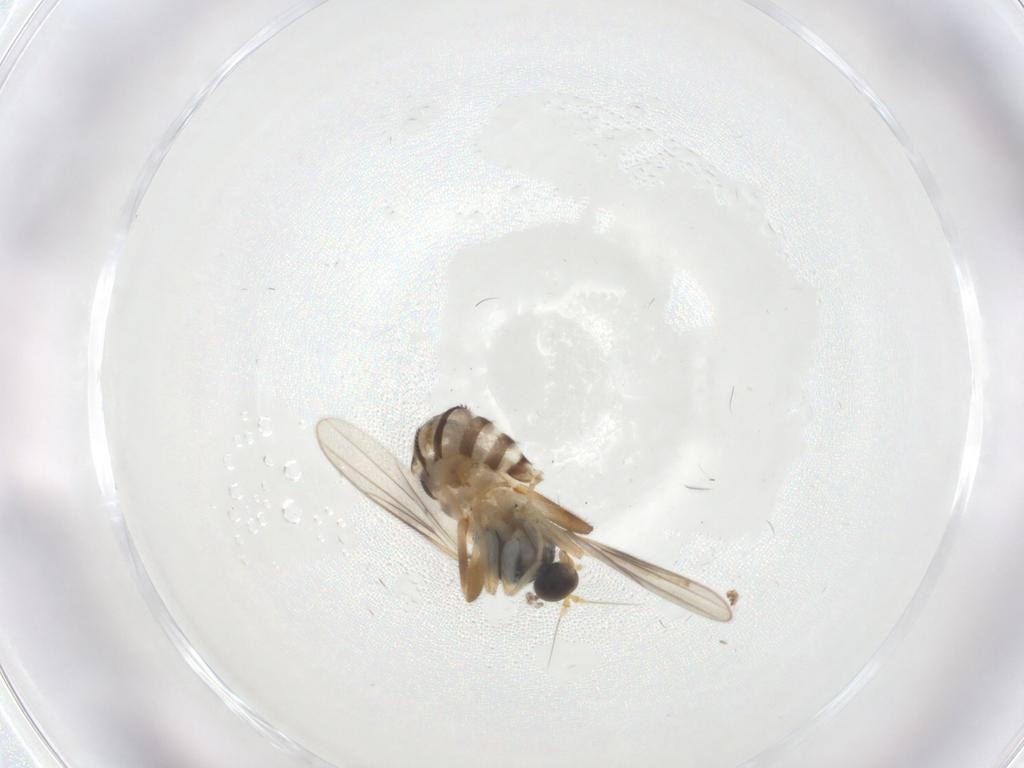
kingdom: Animalia
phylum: Arthropoda
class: Insecta
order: Diptera
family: Hybotidae
